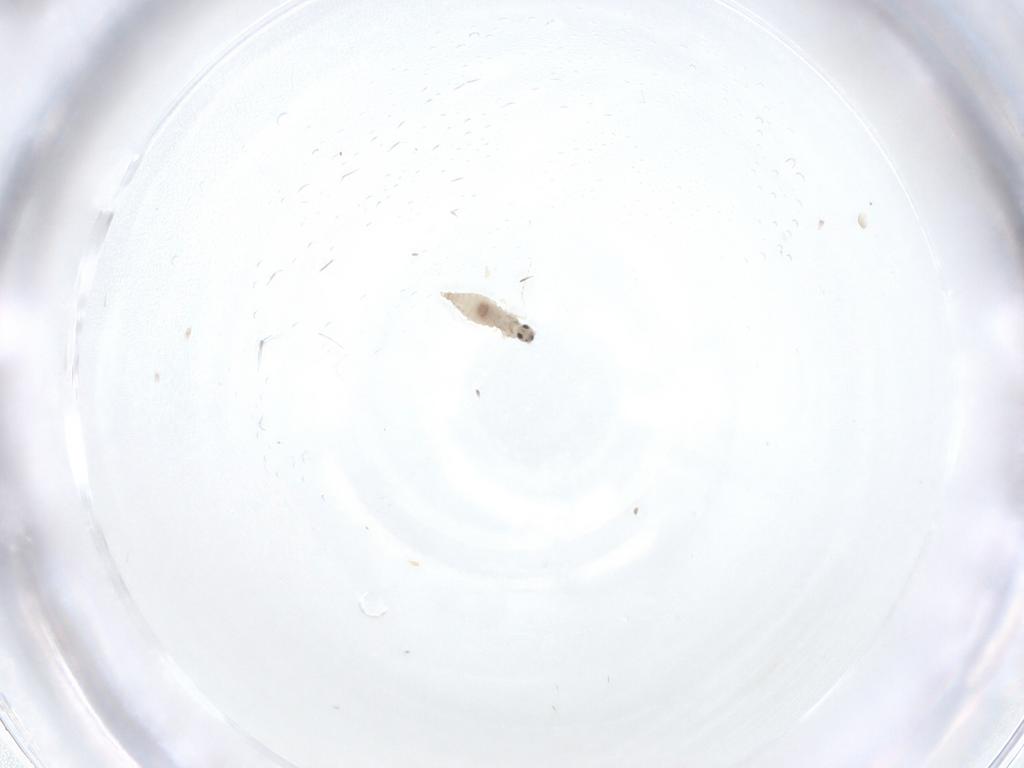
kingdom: Animalia
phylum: Arthropoda
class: Insecta
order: Diptera
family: Cecidomyiidae
